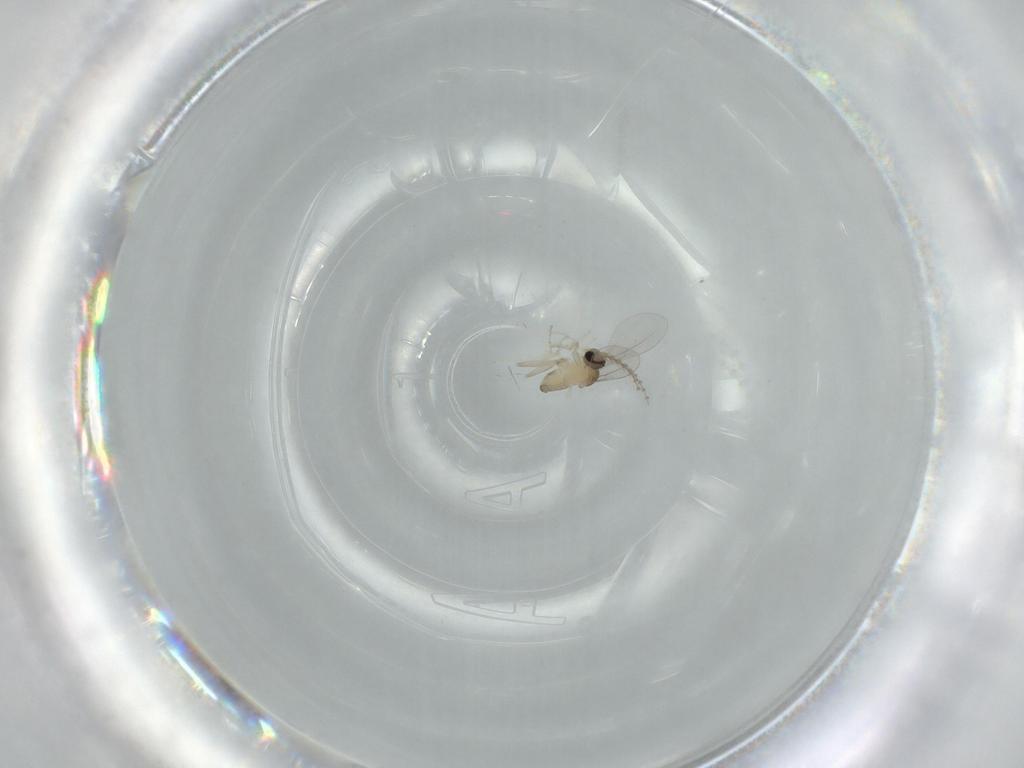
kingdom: Animalia
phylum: Arthropoda
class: Insecta
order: Diptera
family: Cecidomyiidae
